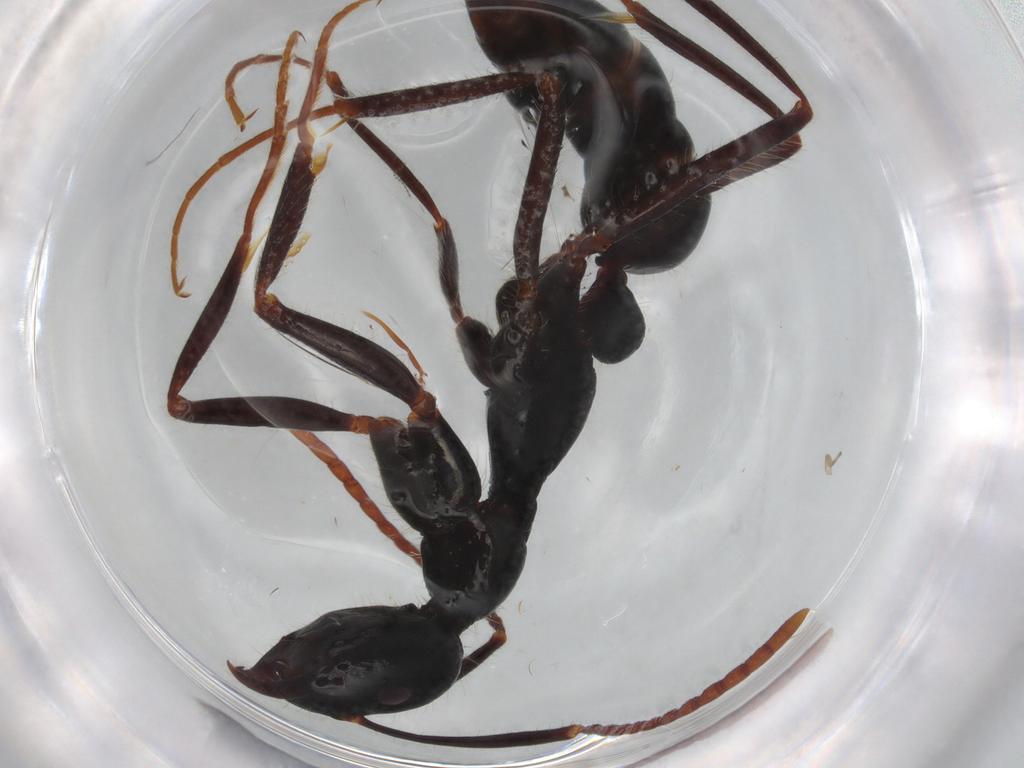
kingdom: Animalia
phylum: Arthropoda
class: Insecta
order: Hymenoptera
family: Formicidae
